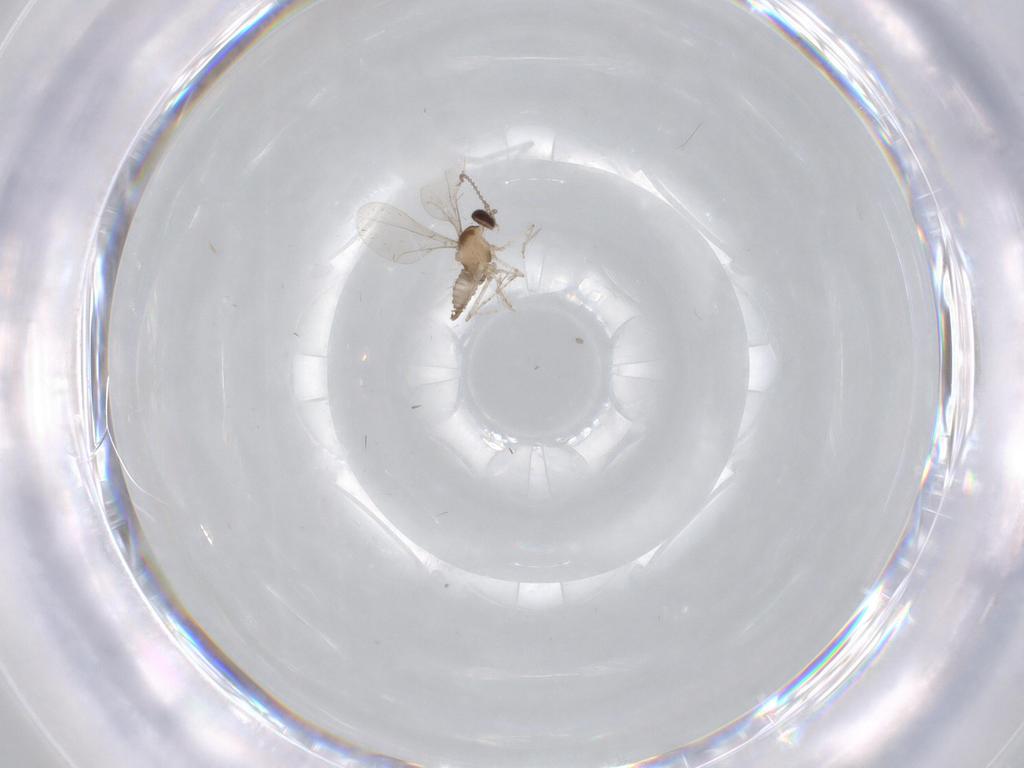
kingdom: Animalia
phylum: Arthropoda
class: Insecta
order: Diptera
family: Cecidomyiidae
